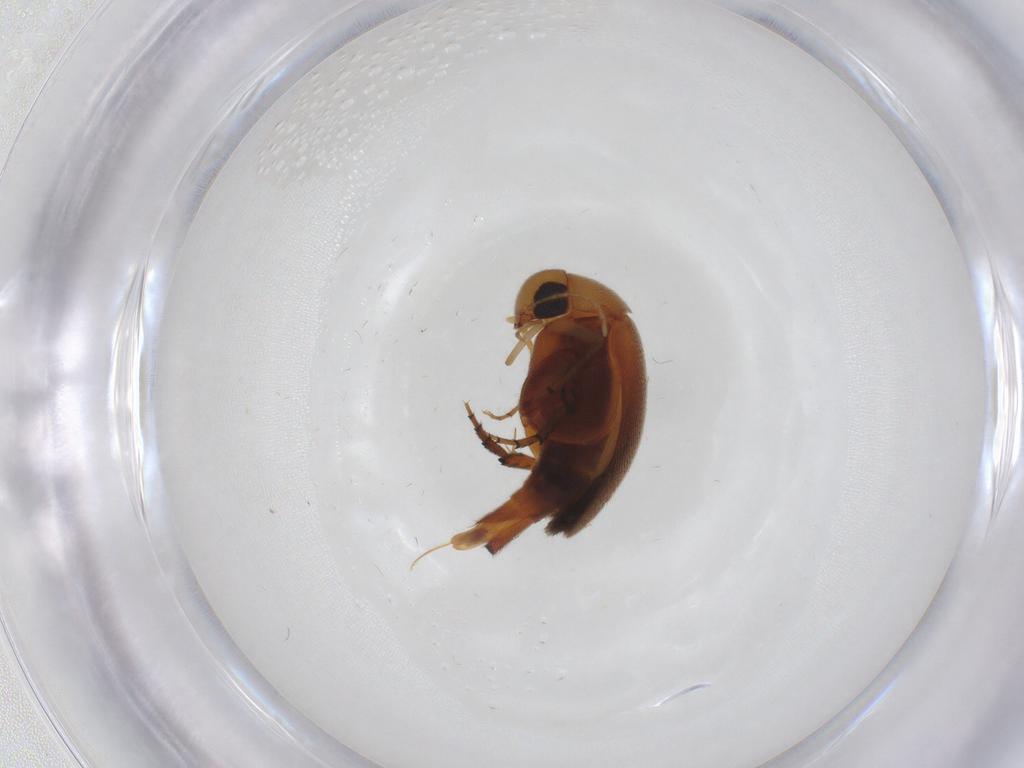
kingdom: Animalia
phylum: Arthropoda
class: Insecta
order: Coleoptera
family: Mordellidae
